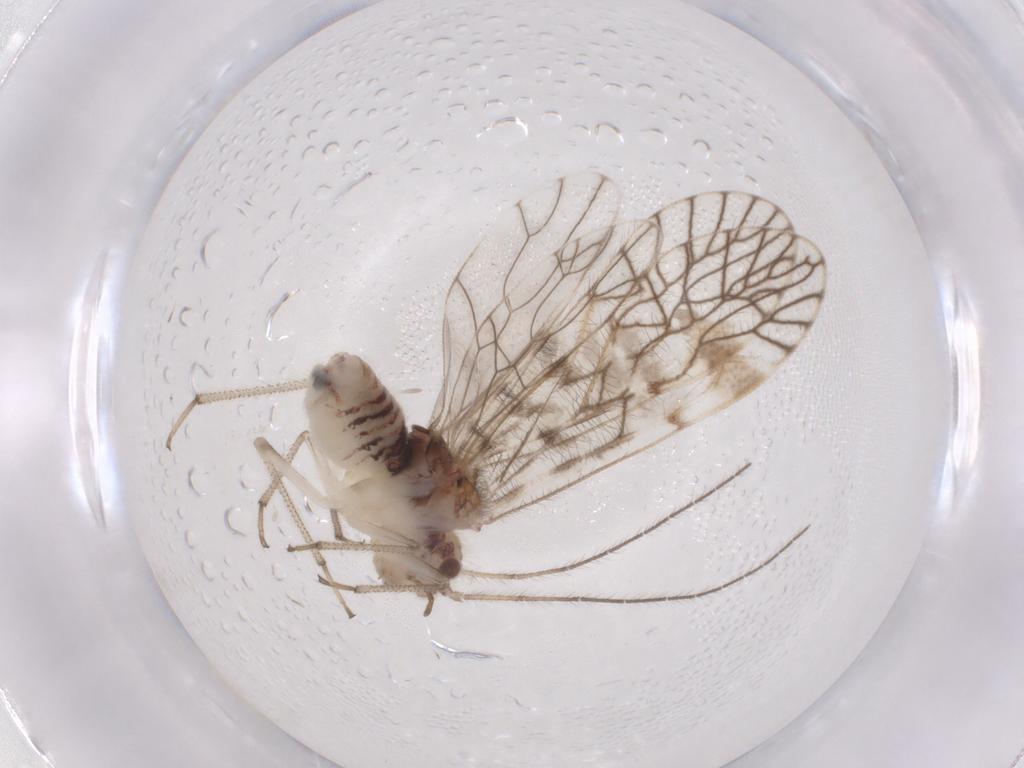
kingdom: Animalia
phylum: Arthropoda
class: Insecta
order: Psocodea
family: Amphipsocidae
